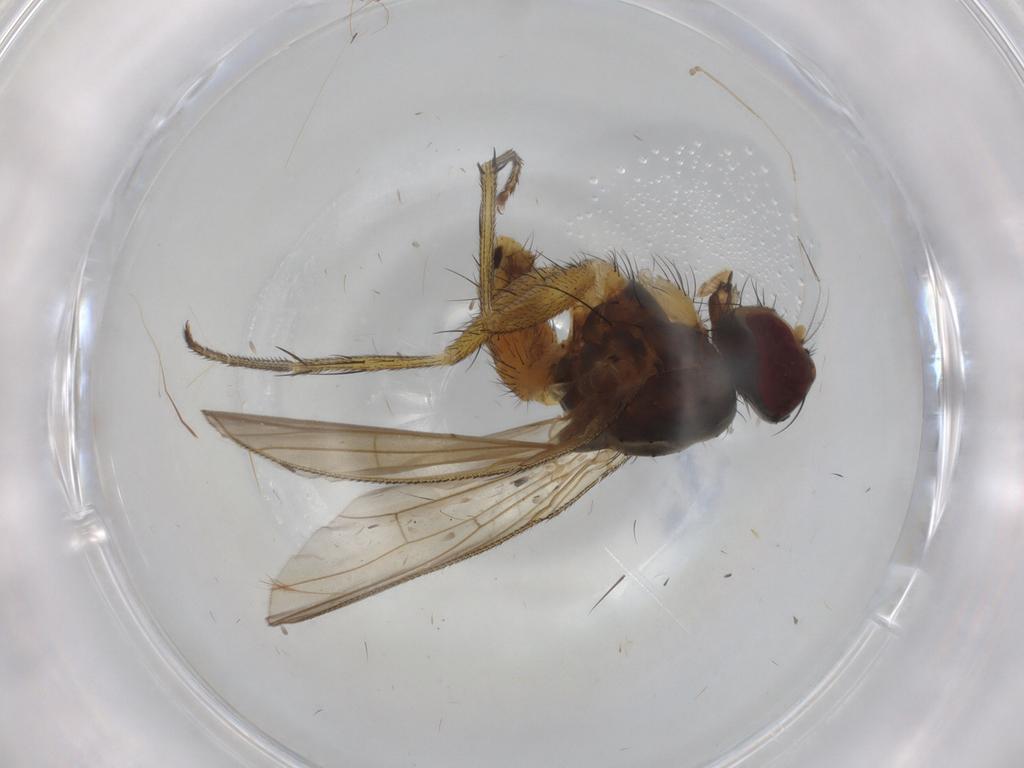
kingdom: Animalia
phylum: Arthropoda
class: Insecta
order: Diptera
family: Muscidae
